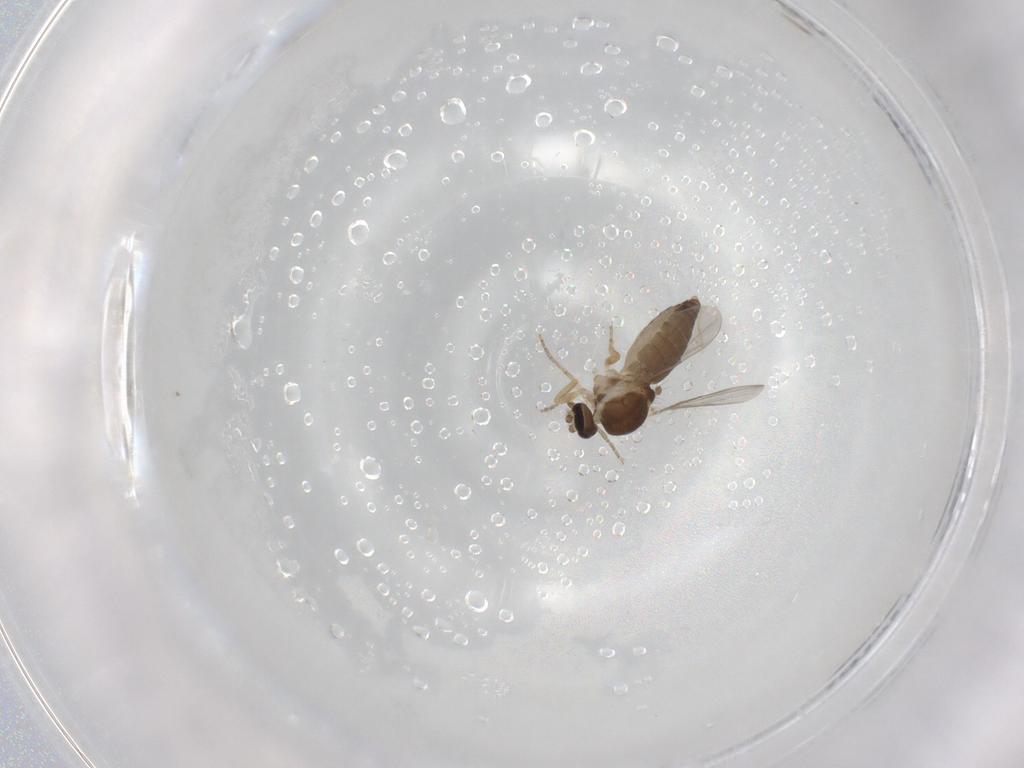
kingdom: Animalia
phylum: Arthropoda
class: Insecta
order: Diptera
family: Ceratopogonidae
